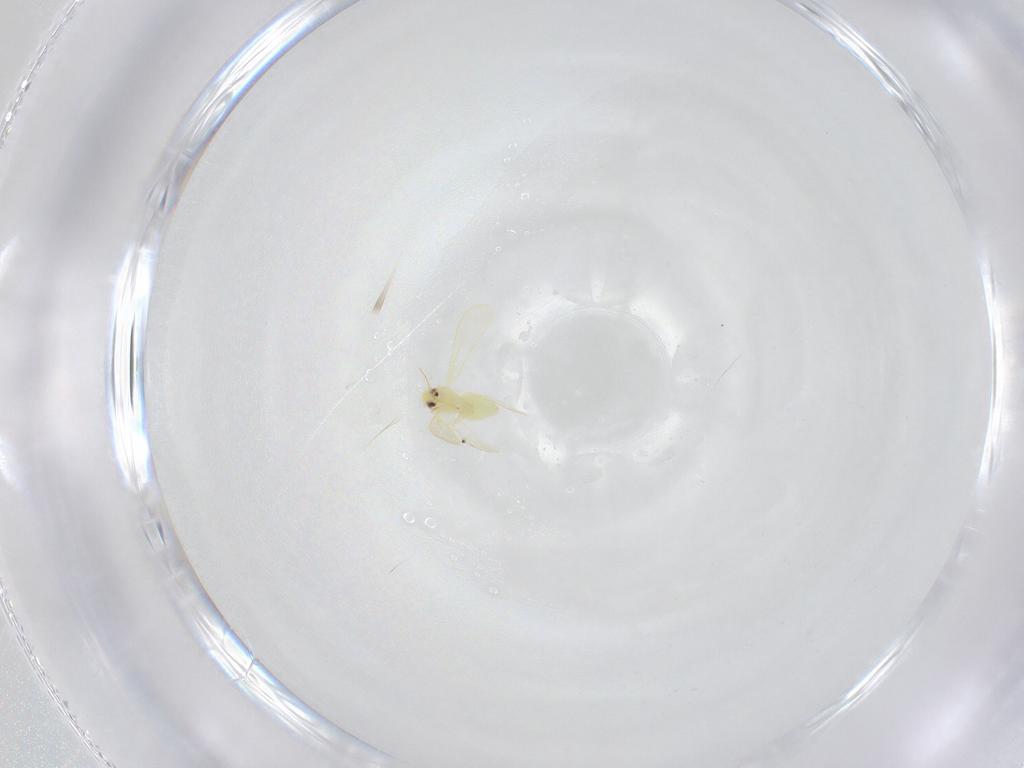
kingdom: Animalia
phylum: Arthropoda
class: Insecta
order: Hemiptera
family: Aleyrodidae
